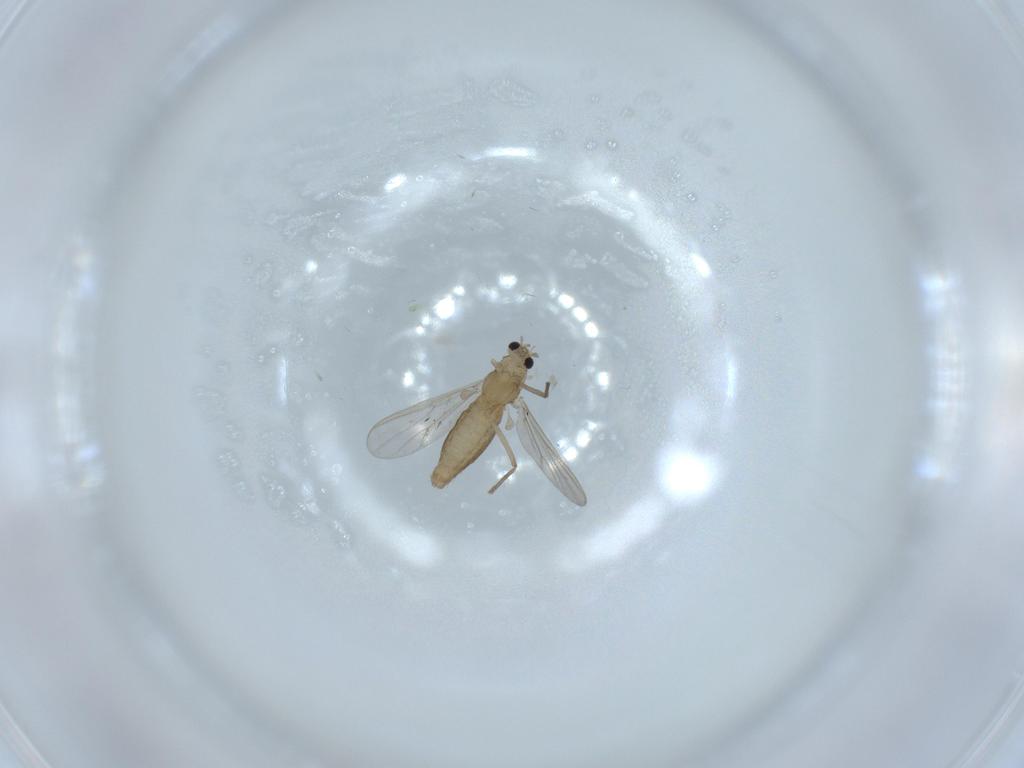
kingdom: Animalia
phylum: Arthropoda
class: Insecta
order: Diptera
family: Chironomidae
